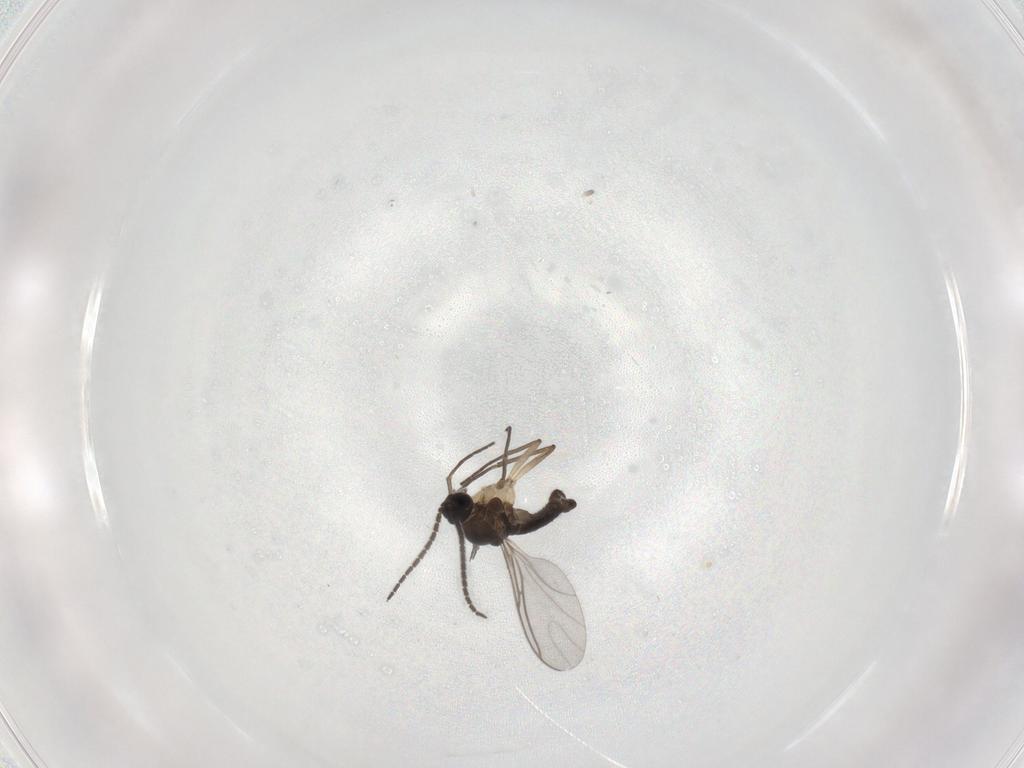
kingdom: Animalia
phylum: Arthropoda
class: Insecta
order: Diptera
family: Sciaridae
